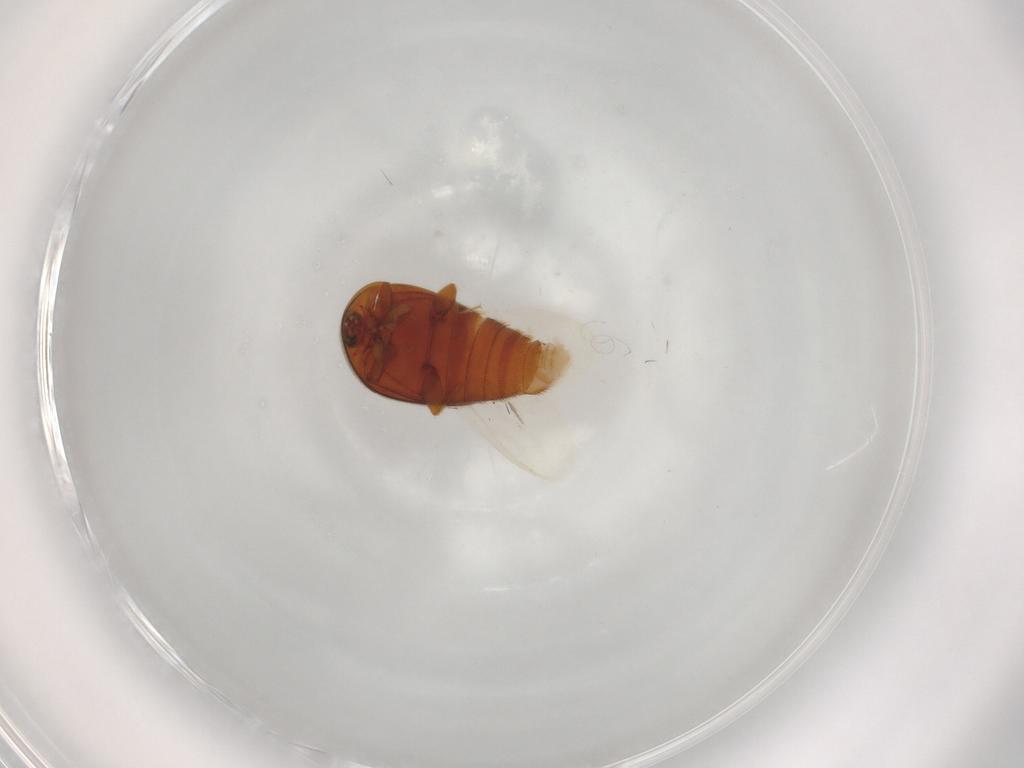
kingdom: Animalia
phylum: Arthropoda
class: Insecta
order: Coleoptera
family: Corylophidae
